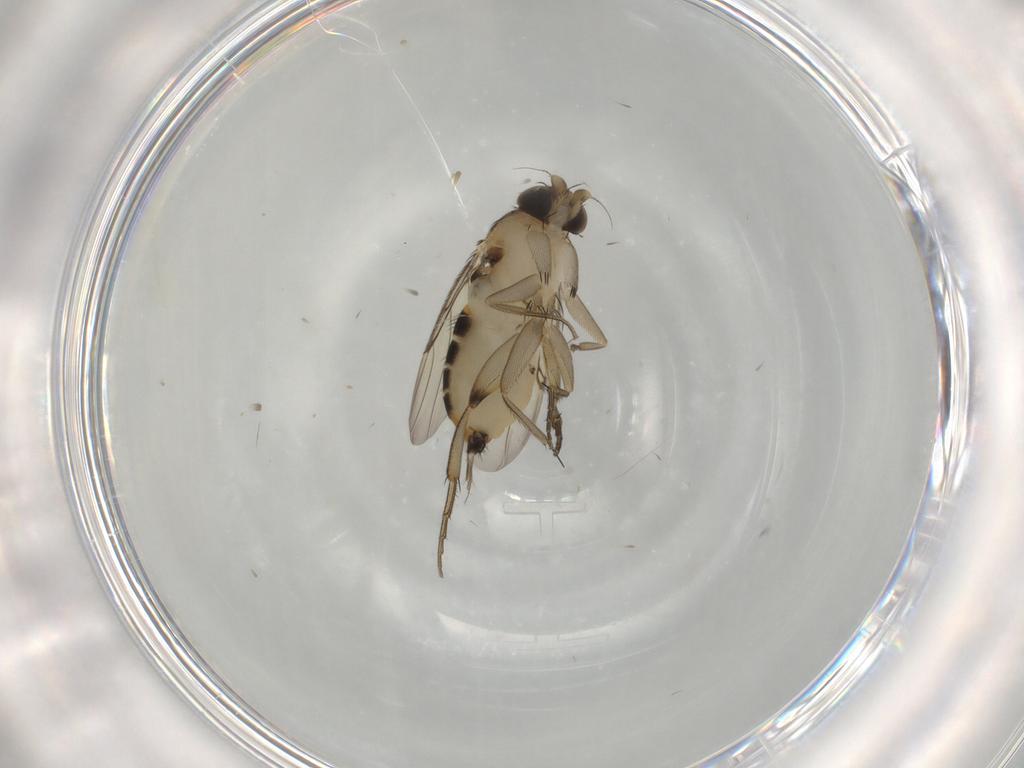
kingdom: Animalia
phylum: Arthropoda
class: Insecta
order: Diptera
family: Phoridae
